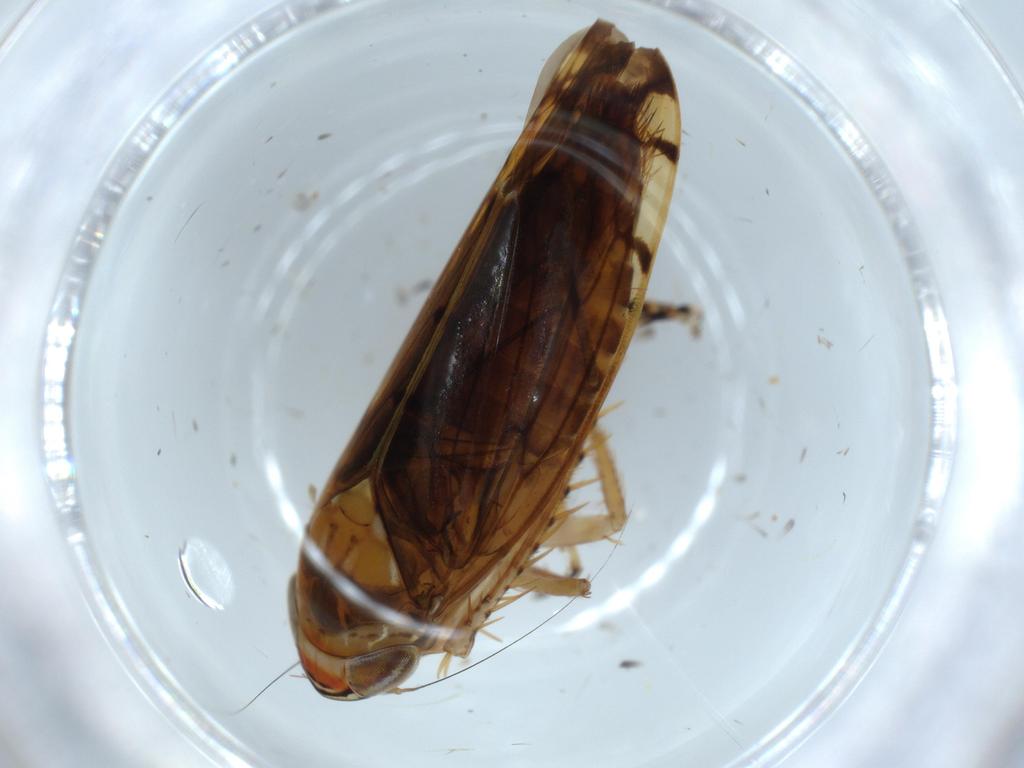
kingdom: Animalia
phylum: Arthropoda
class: Insecta
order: Hemiptera
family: Cicadellidae
